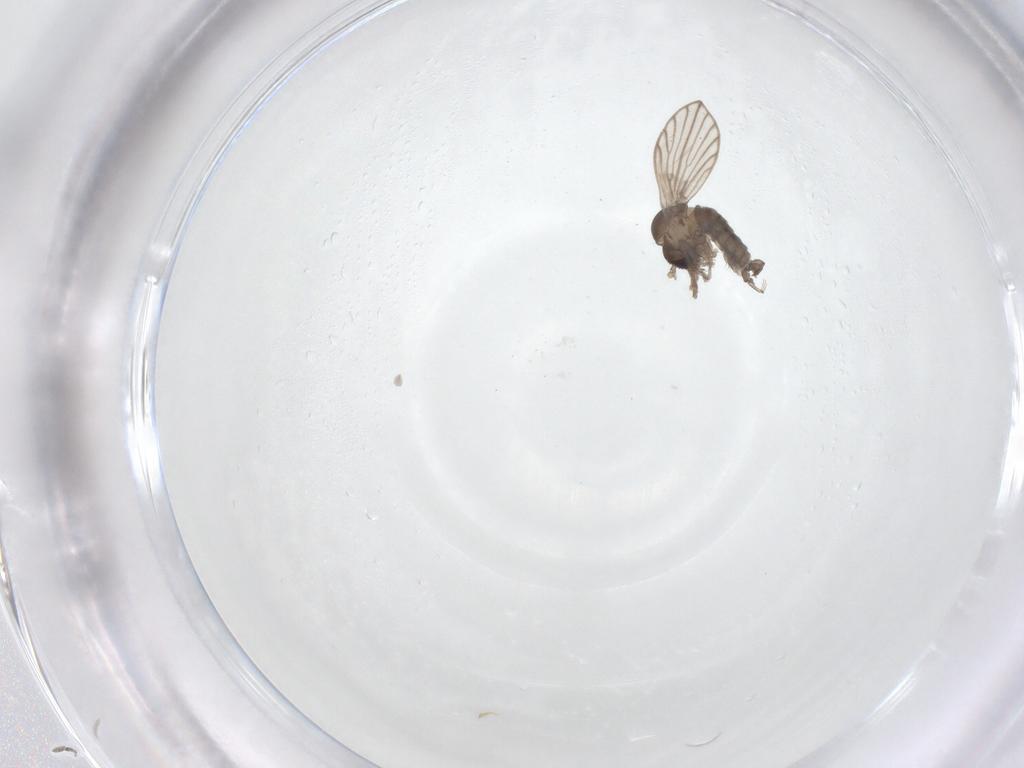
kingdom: Animalia
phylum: Arthropoda
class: Insecta
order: Diptera
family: Psychodidae
